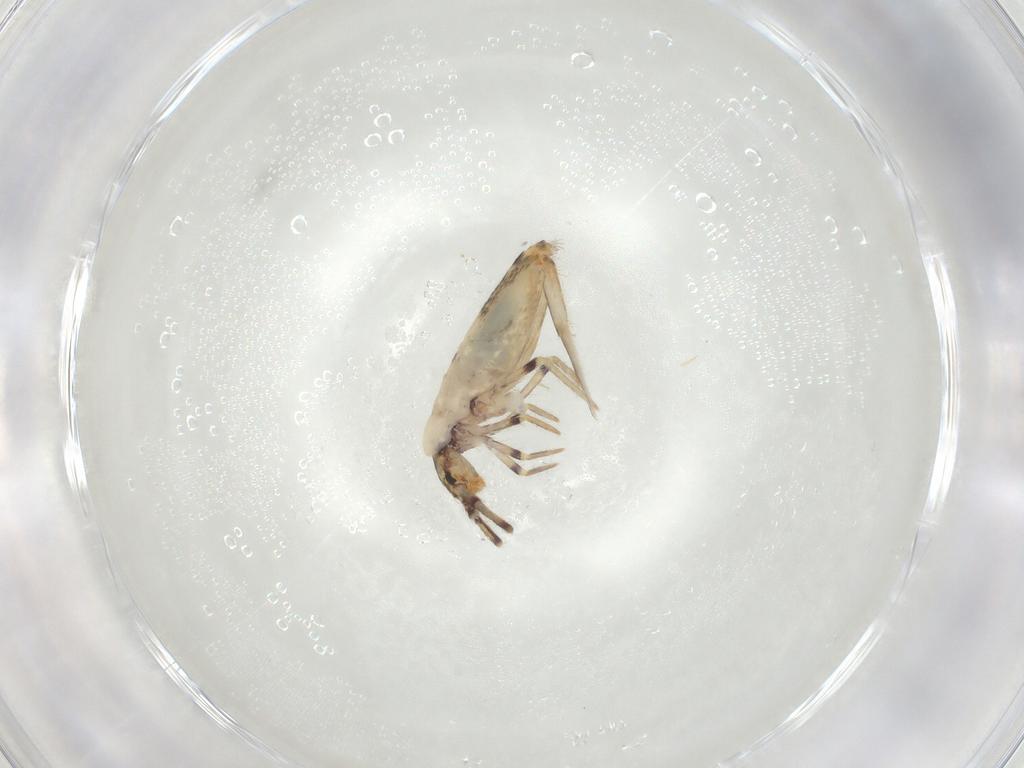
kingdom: Animalia
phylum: Arthropoda
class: Collembola
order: Entomobryomorpha
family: Entomobryidae
